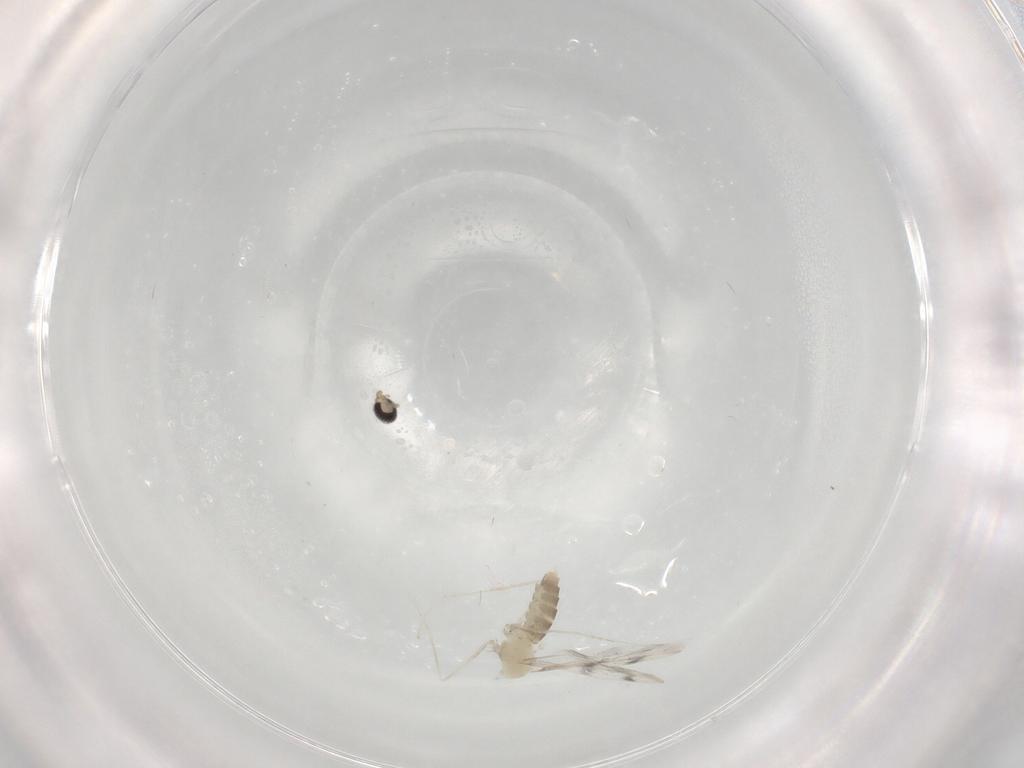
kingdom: Animalia
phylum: Arthropoda
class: Insecta
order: Diptera
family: Cecidomyiidae
